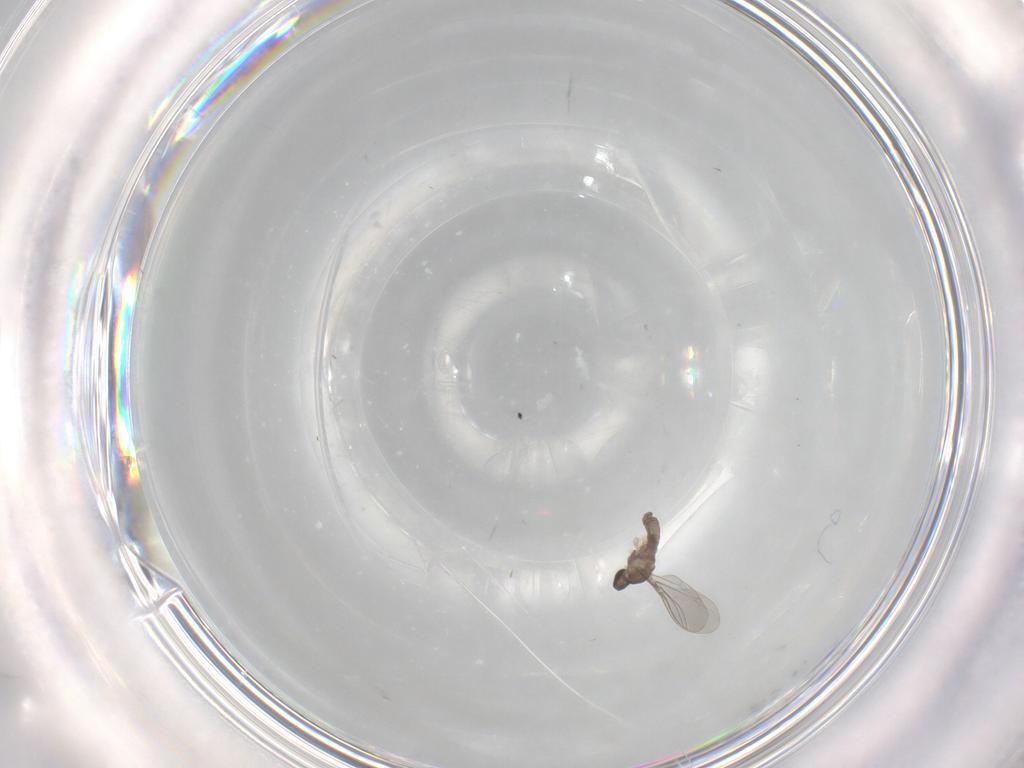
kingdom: Animalia
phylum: Arthropoda
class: Insecta
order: Diptera
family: Cecidomyiidae
